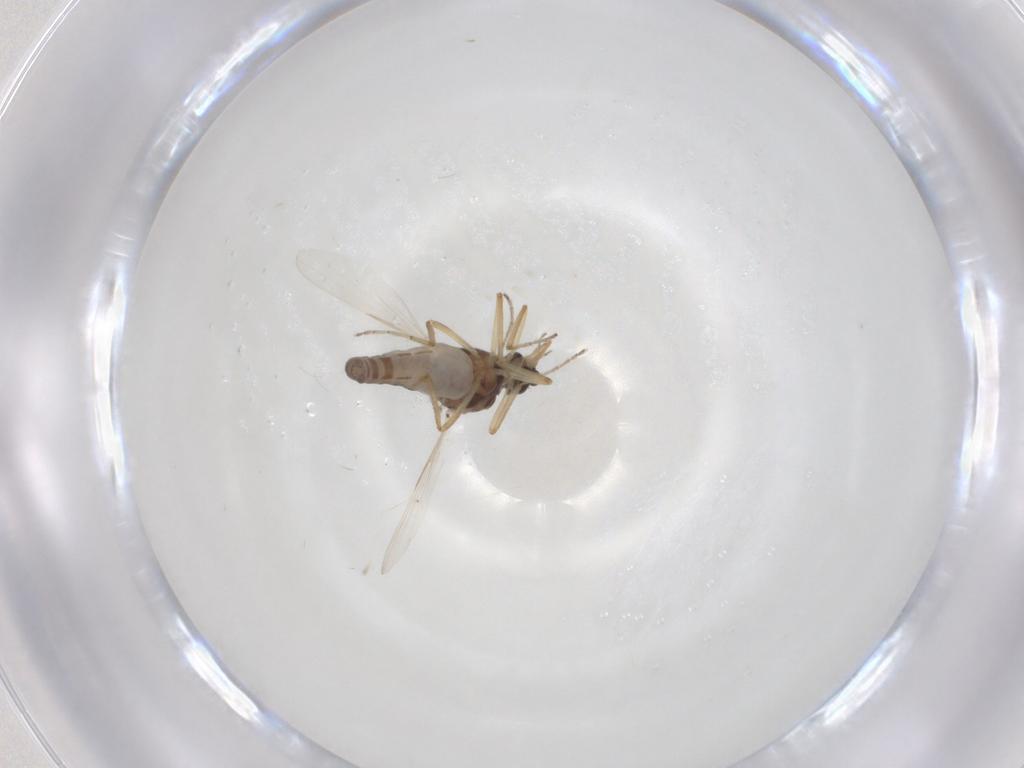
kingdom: Animalia
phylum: Arthropoda
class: Insecta
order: Diptera
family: Ceratopogonidae
